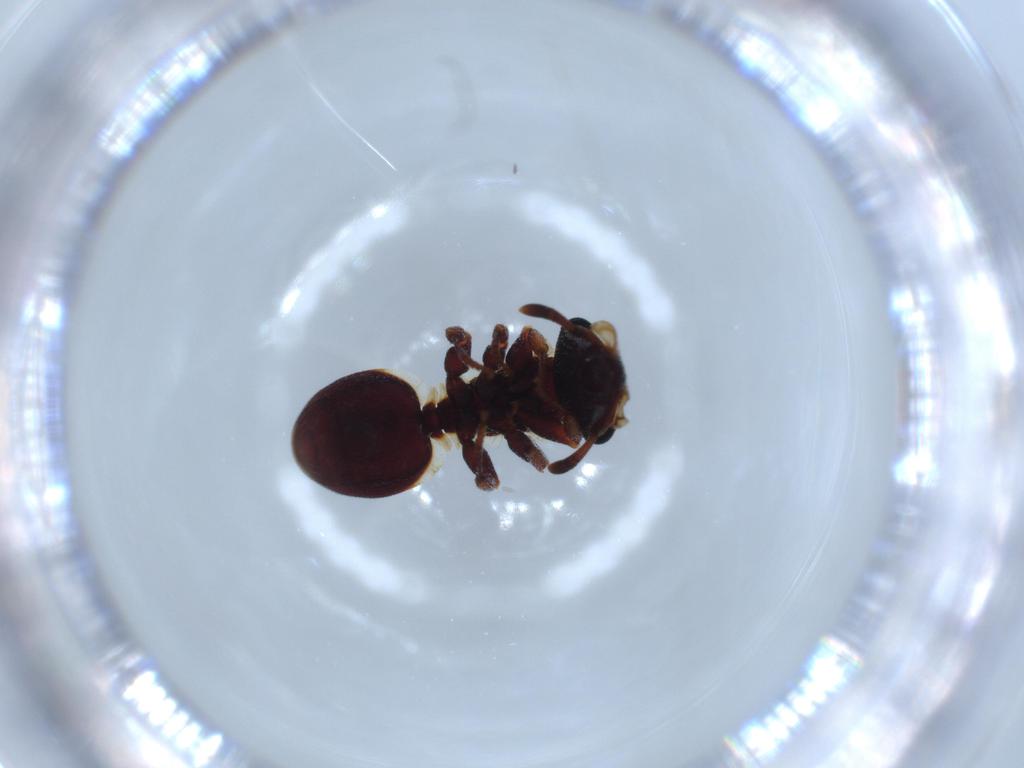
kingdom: Animalia
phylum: Arthropoda
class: Insecta
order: Hymenoptera
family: Formicidae
